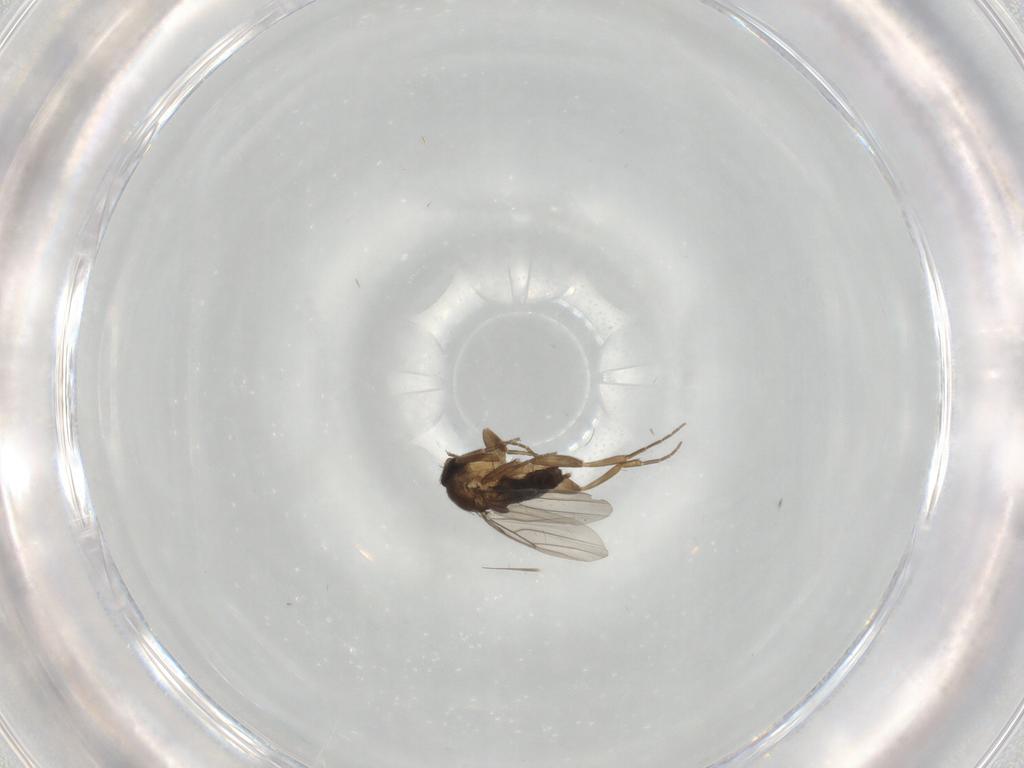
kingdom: Animalia
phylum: Arthropoda
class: Insecta
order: Diptera
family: Phoridae
